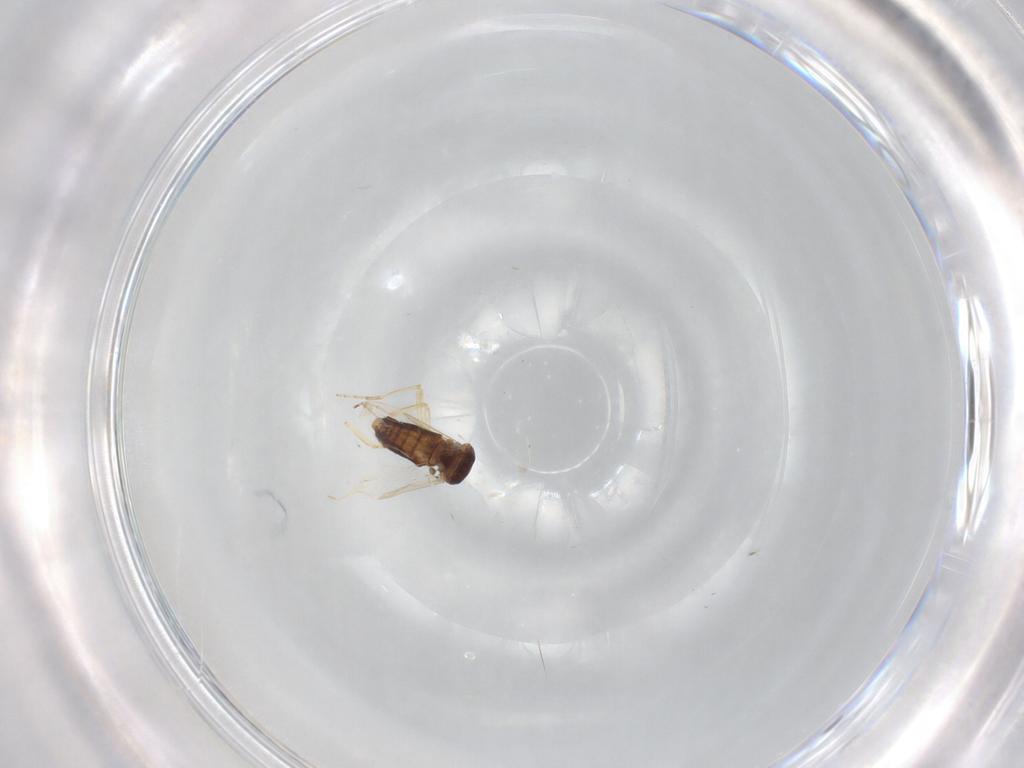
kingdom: Animalia
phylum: Arthropoda
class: Insecta
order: Diptera
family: Ceratopogonidae
